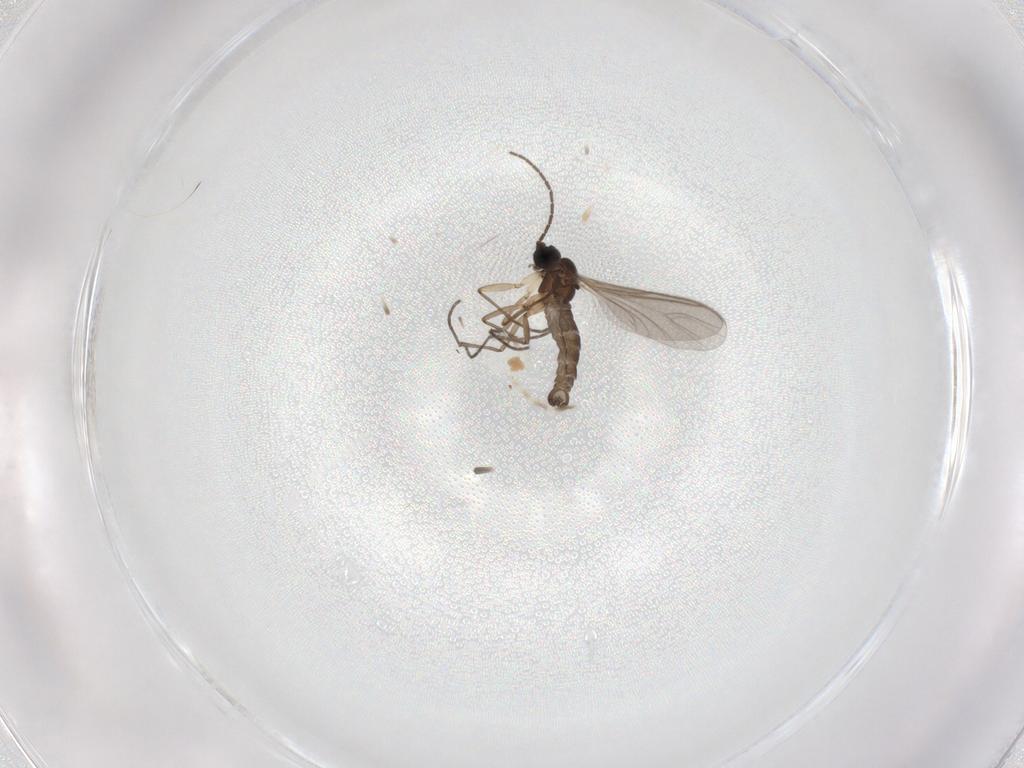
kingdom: Animalia
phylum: Arthropoda
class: Insecta
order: Diptera
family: Sciaridae
